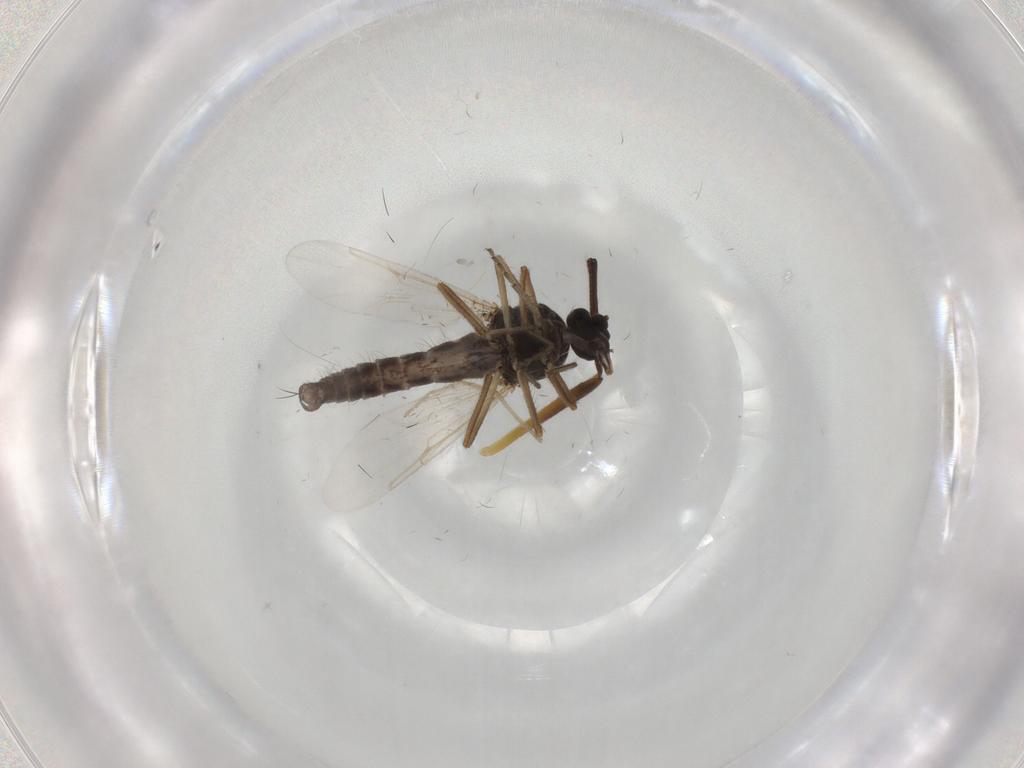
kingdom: Animalia
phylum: Arthropoda
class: Insecta
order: Diptera
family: Ceratopogonidae
